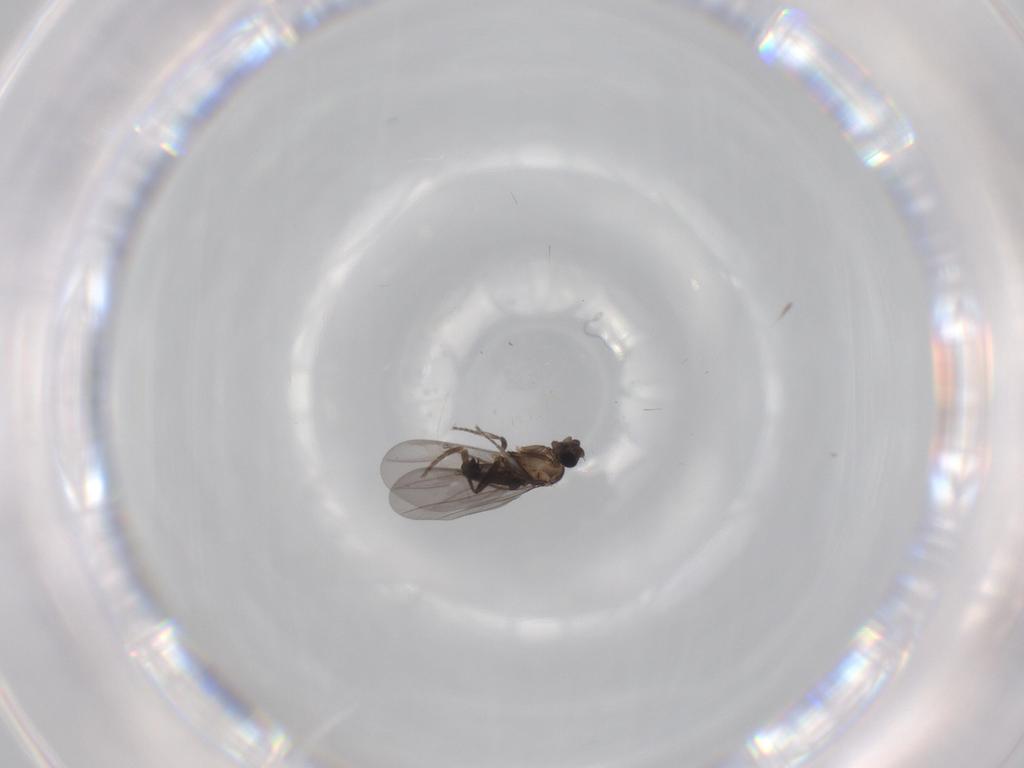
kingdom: Animalia
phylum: Arthropoda
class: Insecta
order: Diptera
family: Phoridae
